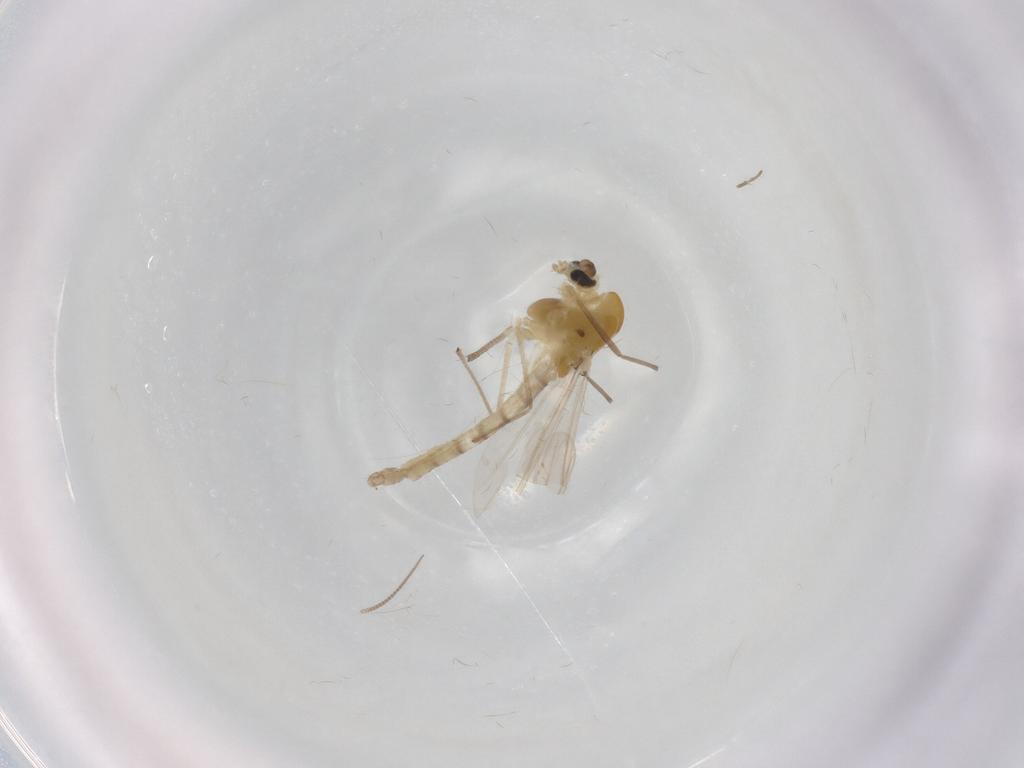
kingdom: Animalia
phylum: Arthropoda
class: Insecta
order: Diptera
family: Chironomidae
